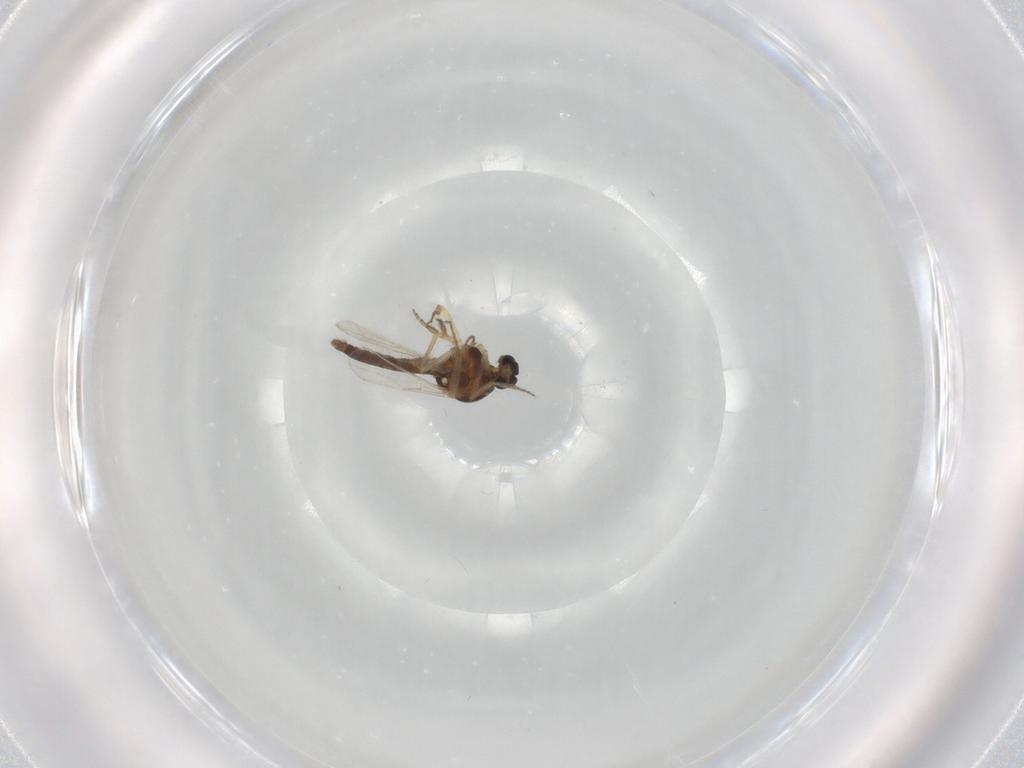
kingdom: Animalia
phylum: Arthropoda
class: Insecta
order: Diptera
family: Ceratopogonidae
